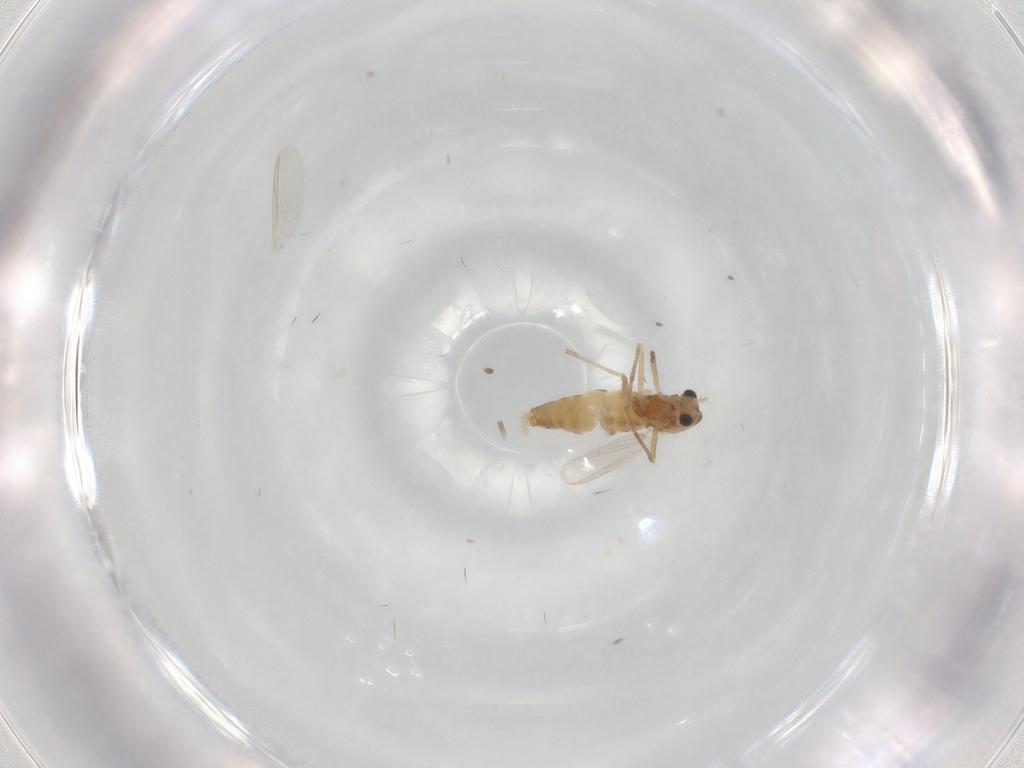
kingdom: Animalia
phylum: Arthropoda
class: Insecta
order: Diptera
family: Chironomidae
